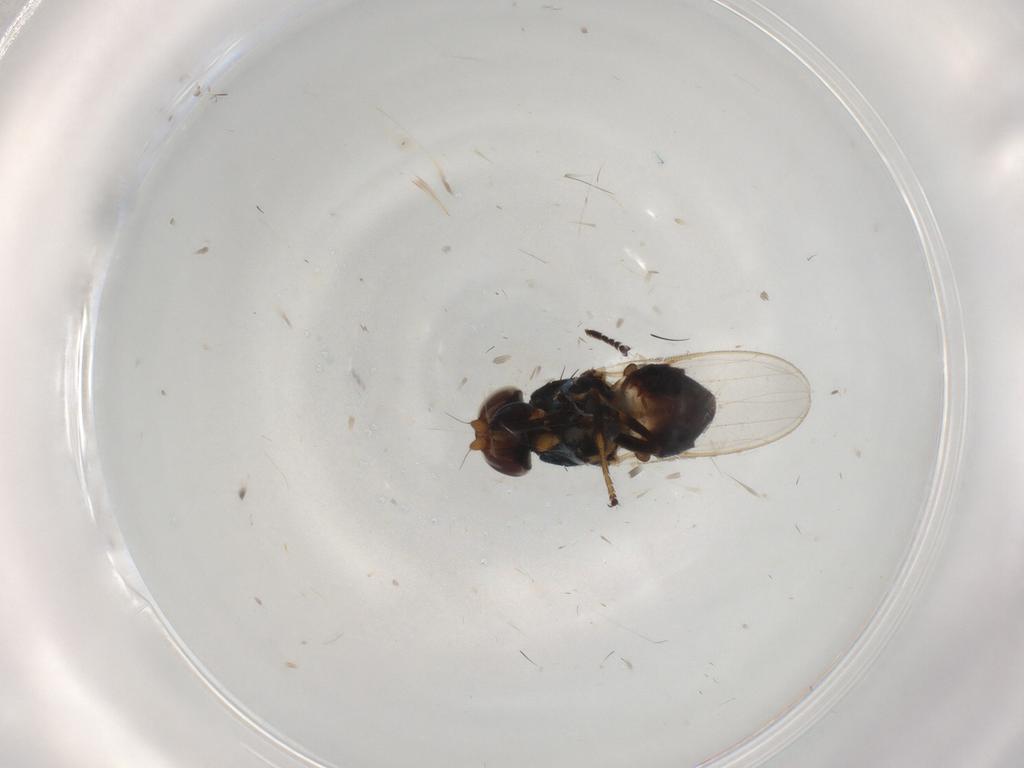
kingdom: Animalia
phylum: Arthropoda
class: Insecta
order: Diptera
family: Chloropidae
